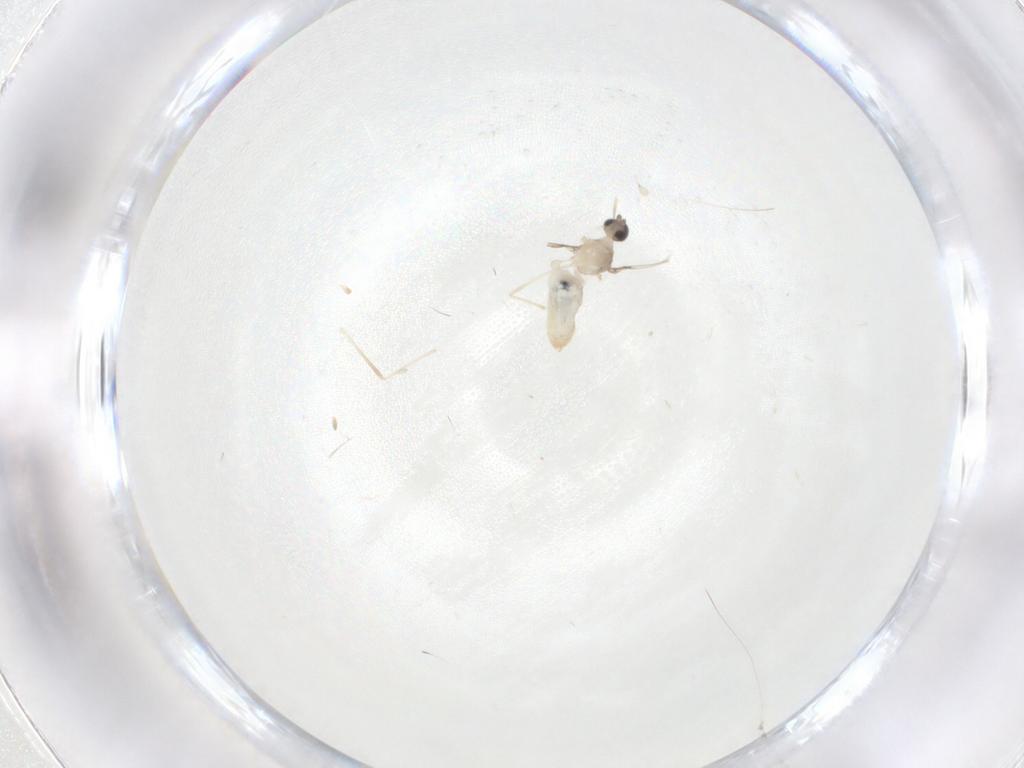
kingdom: Animalia
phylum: Arthropoda
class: Insecta
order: Diptera
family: Cecidomyiidae
